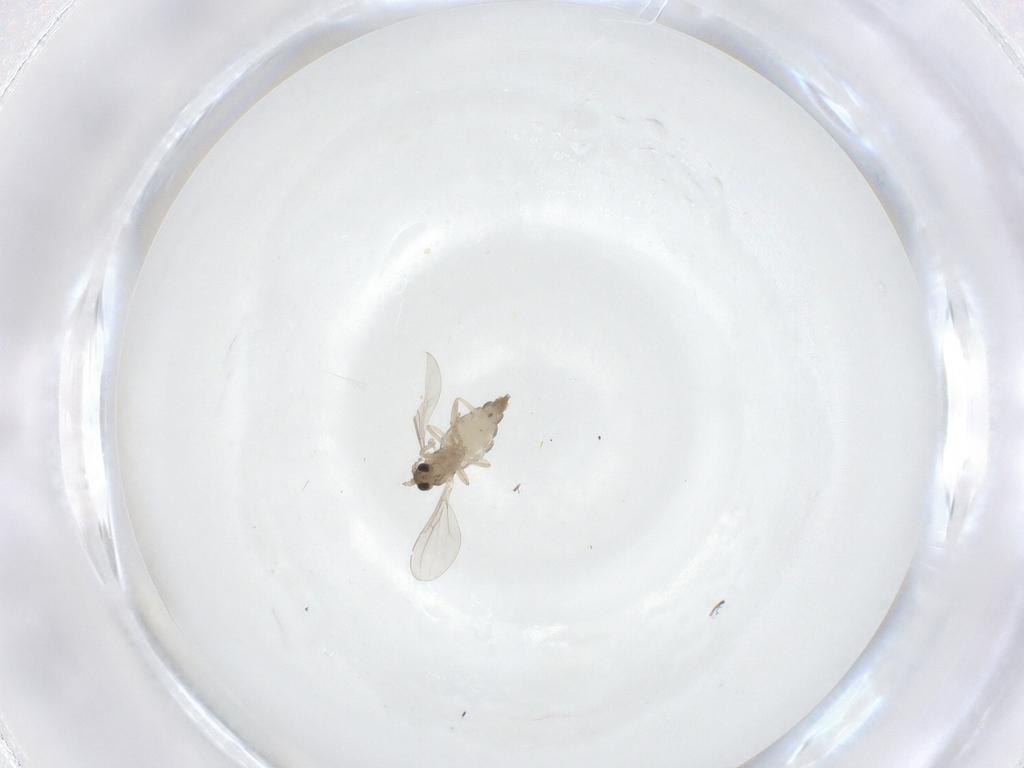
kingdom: Animalia
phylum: Arthropoda
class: Insecta
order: Diptera
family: Cecidomyiidae
